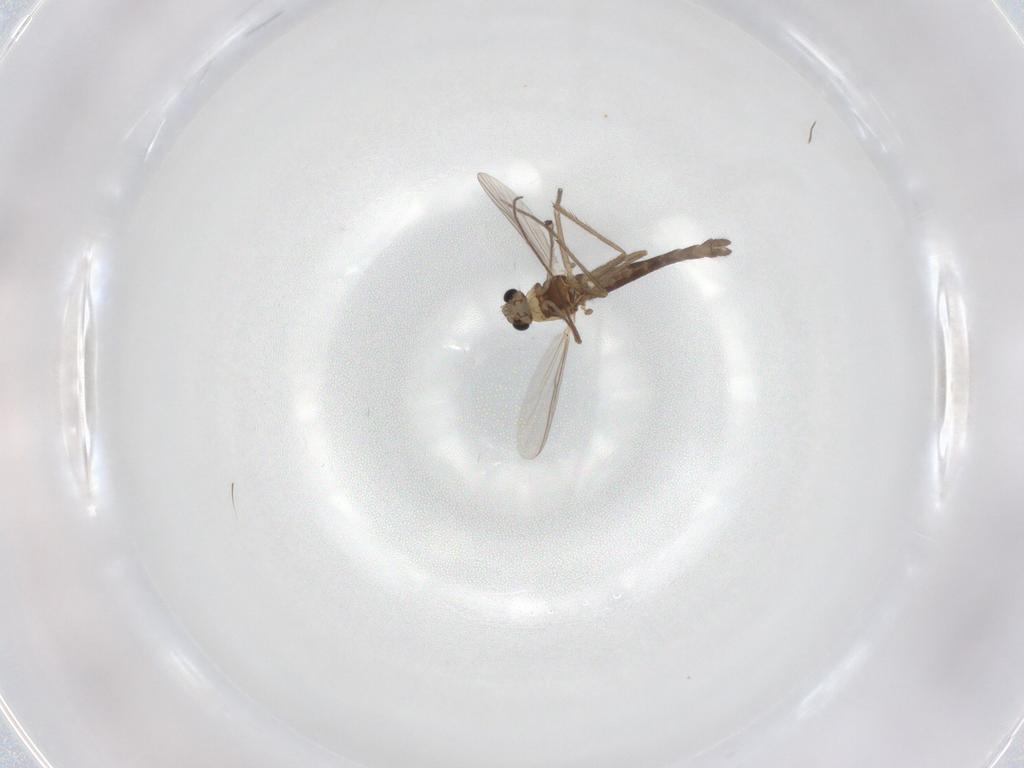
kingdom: Animalia
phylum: Arthropoda
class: Insecta
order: Diptera
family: Chironomidae
